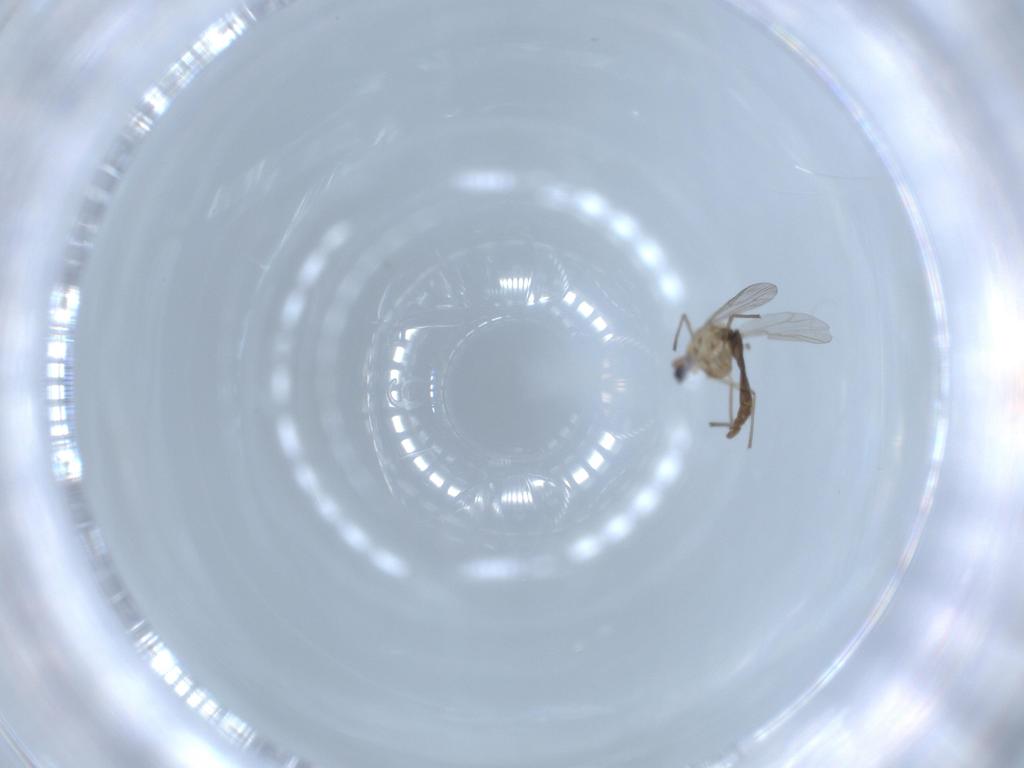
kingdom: Animalia
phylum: Arthropoda
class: Insecta
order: Diptera
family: Chironomidae
